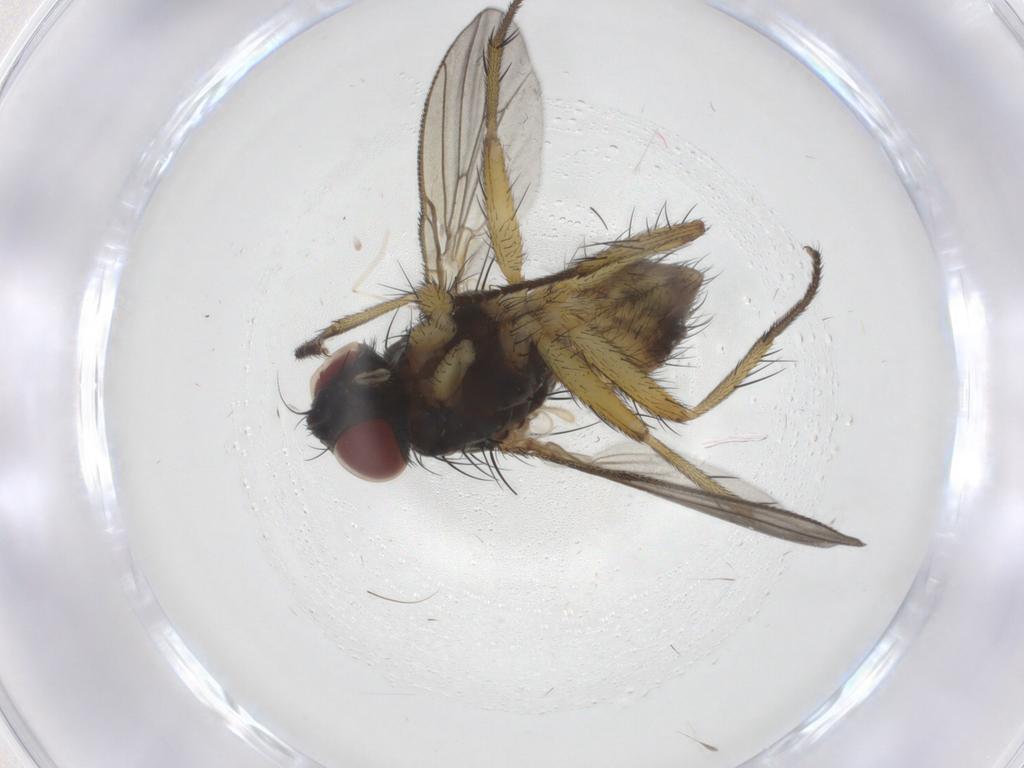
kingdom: Animalia
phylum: Arthropoda
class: Insecta
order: Diptera
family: Muscidae
